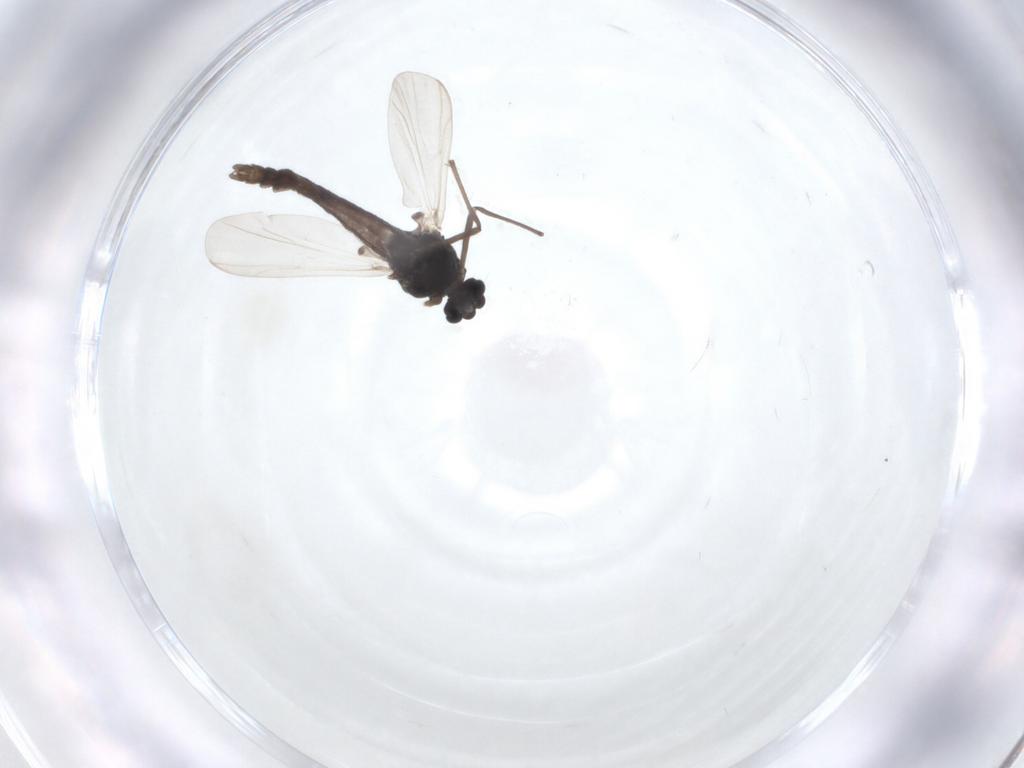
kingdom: Animalia
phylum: Arthropoda
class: Insecta
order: Diptera
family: Chironomidae
